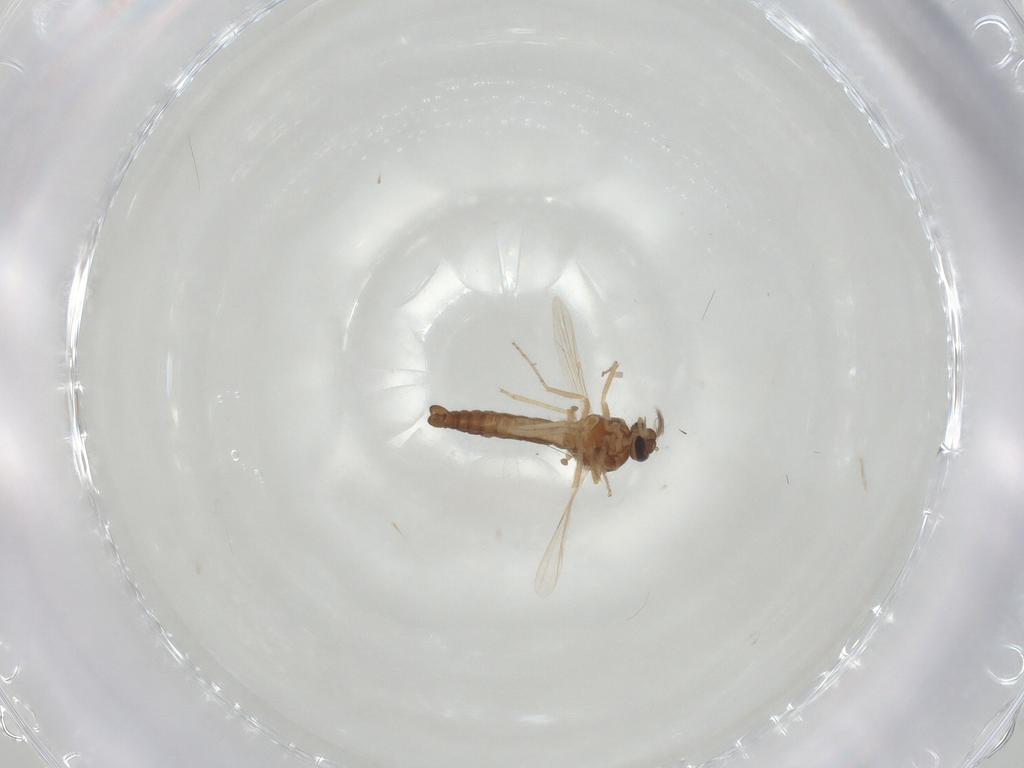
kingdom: Animalia
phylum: Arthropoda
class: Insecta
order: Diptera
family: Ceratopogonidae
